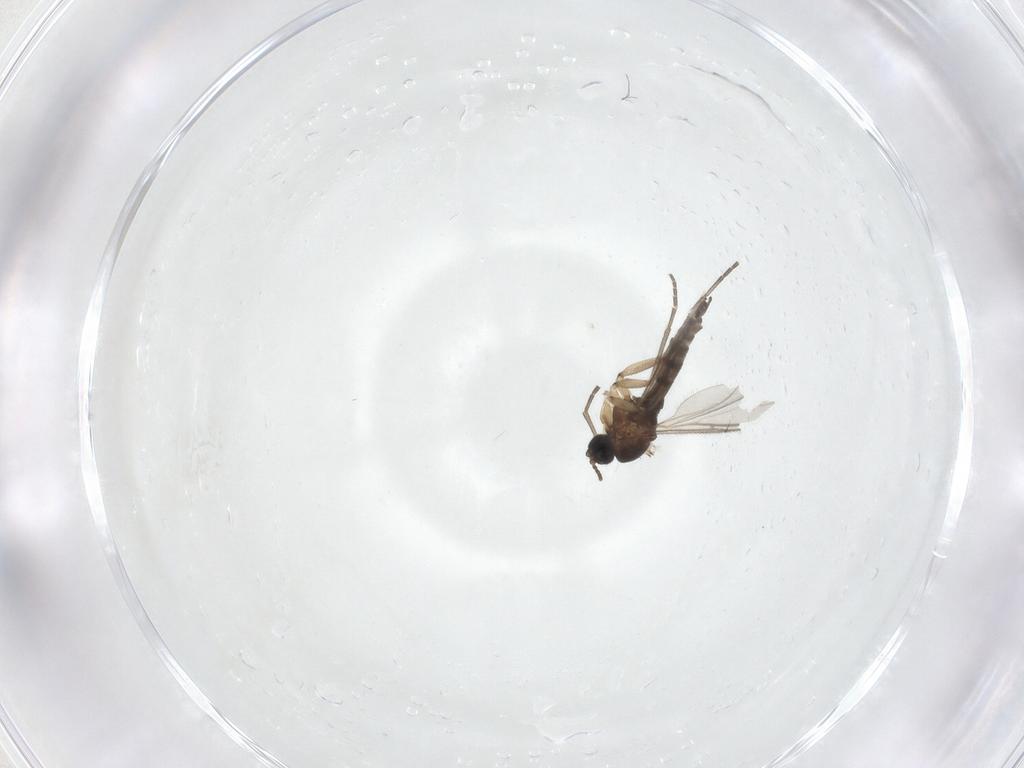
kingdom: Animalia
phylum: Arthropoda
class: Insecta
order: Diptera
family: Sciaridae
